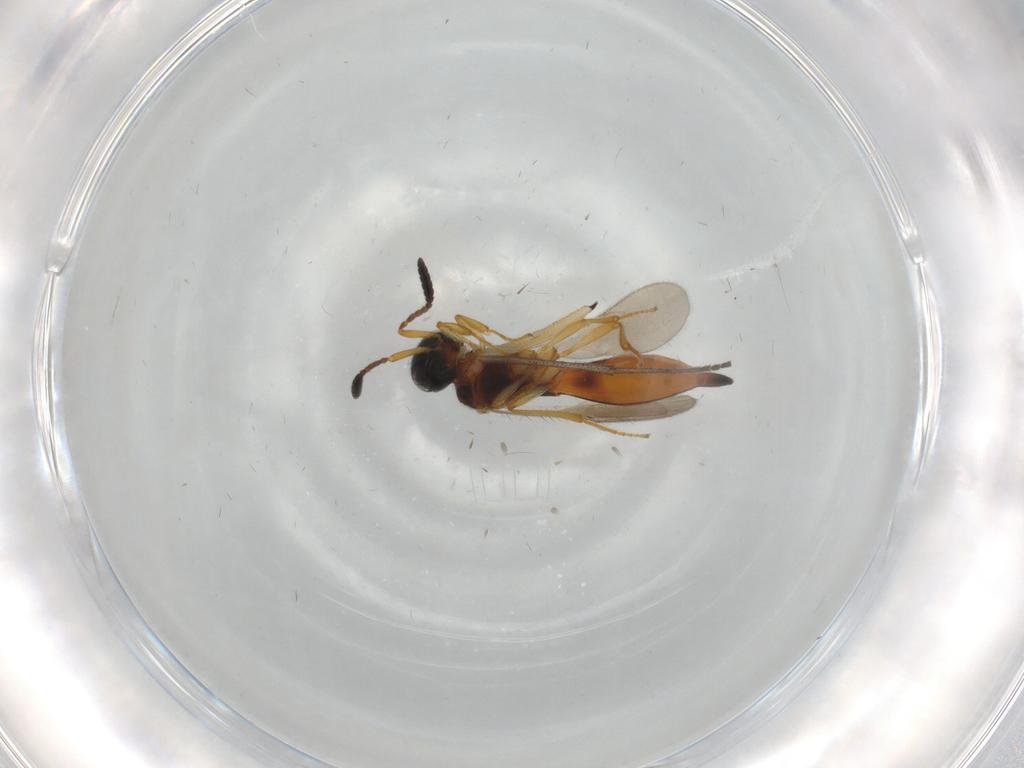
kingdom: Animalia
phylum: Arthropoda
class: Insecta
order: Hymenoptera
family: Scelionidae
